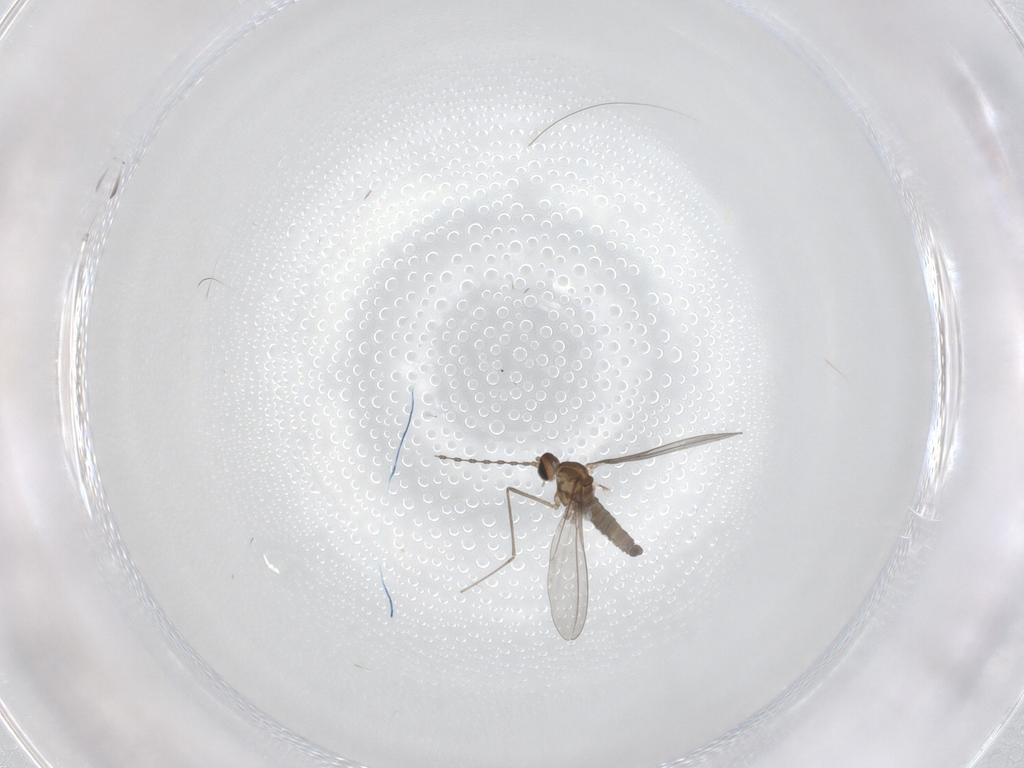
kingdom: Animalia
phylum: Arthropoda
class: Insecta
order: Diptera
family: Cecidomyiidae
